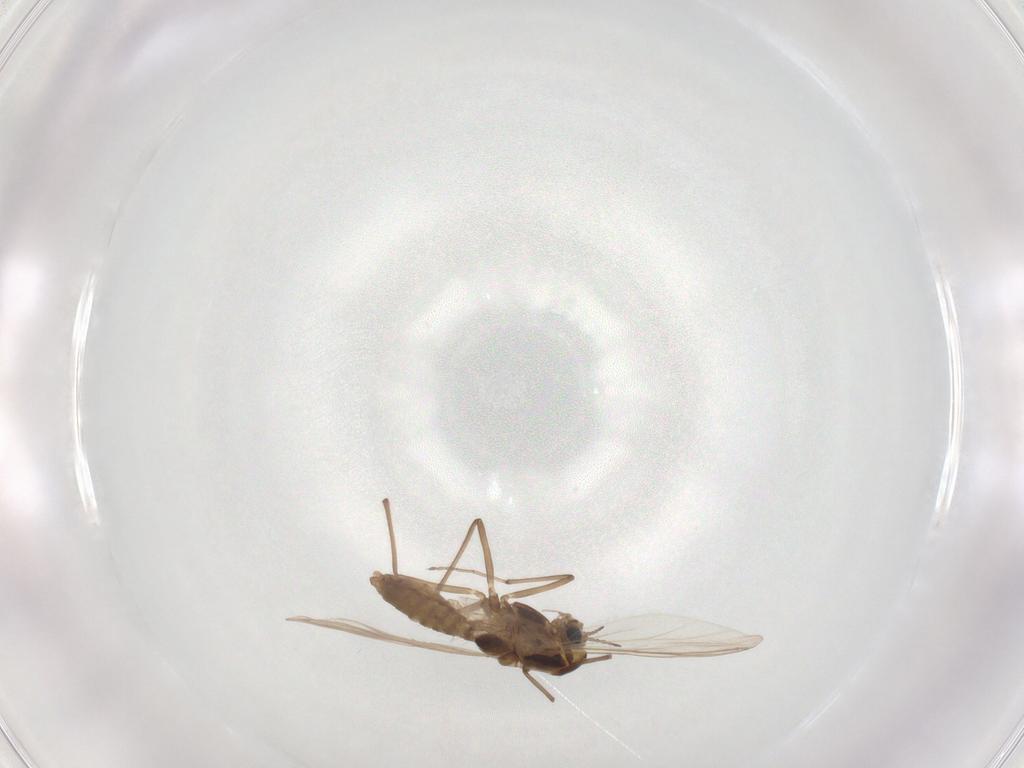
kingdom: Animalia
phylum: Arthropoda
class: Insecta
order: Diptera
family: Chironomidae
